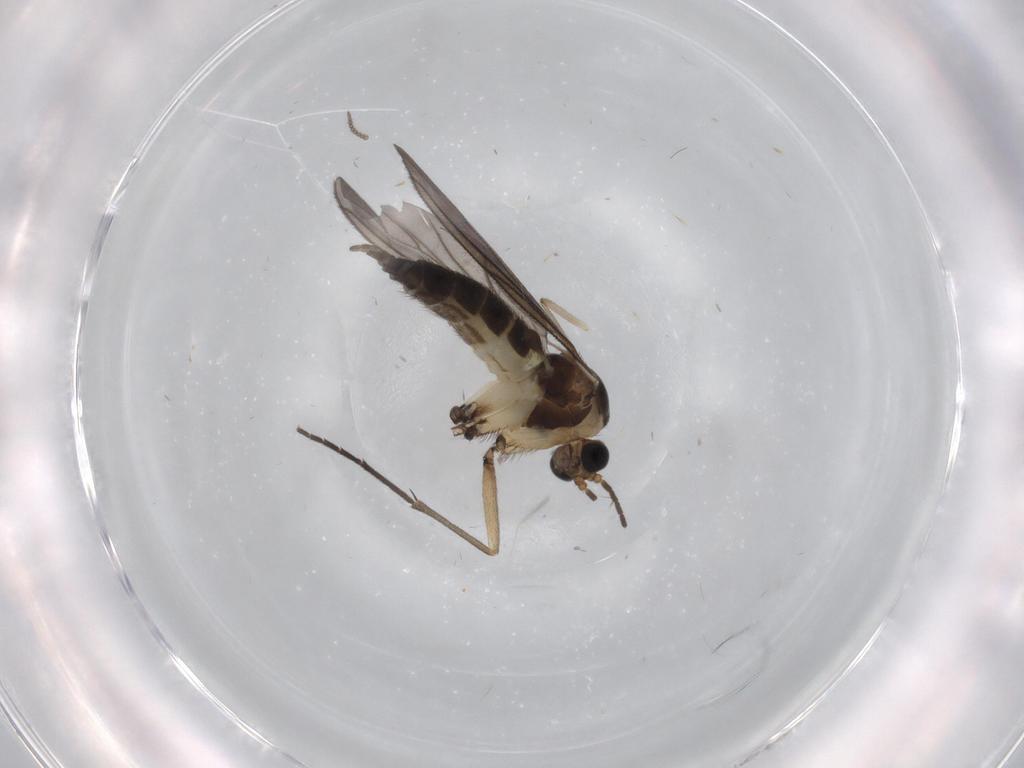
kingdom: Animalia
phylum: Arthropoda
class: Insecta
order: Diptera
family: Sciaridae
